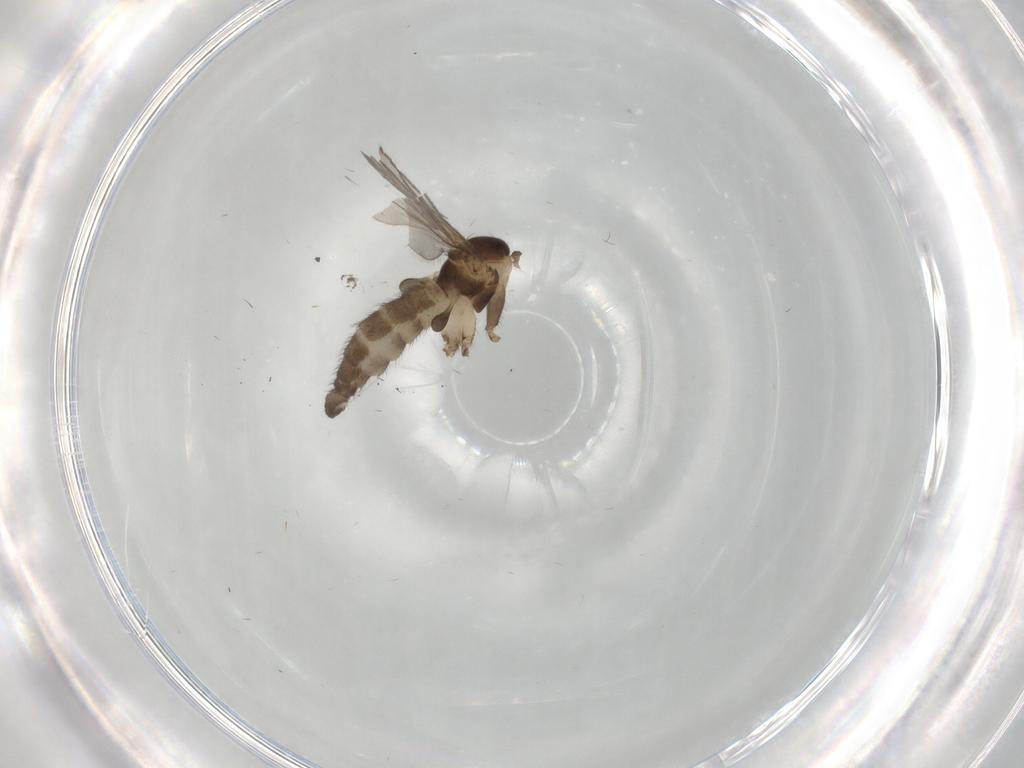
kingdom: Animalia
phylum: Arthropoda
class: Insecta
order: Diptera
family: Sciaridae
